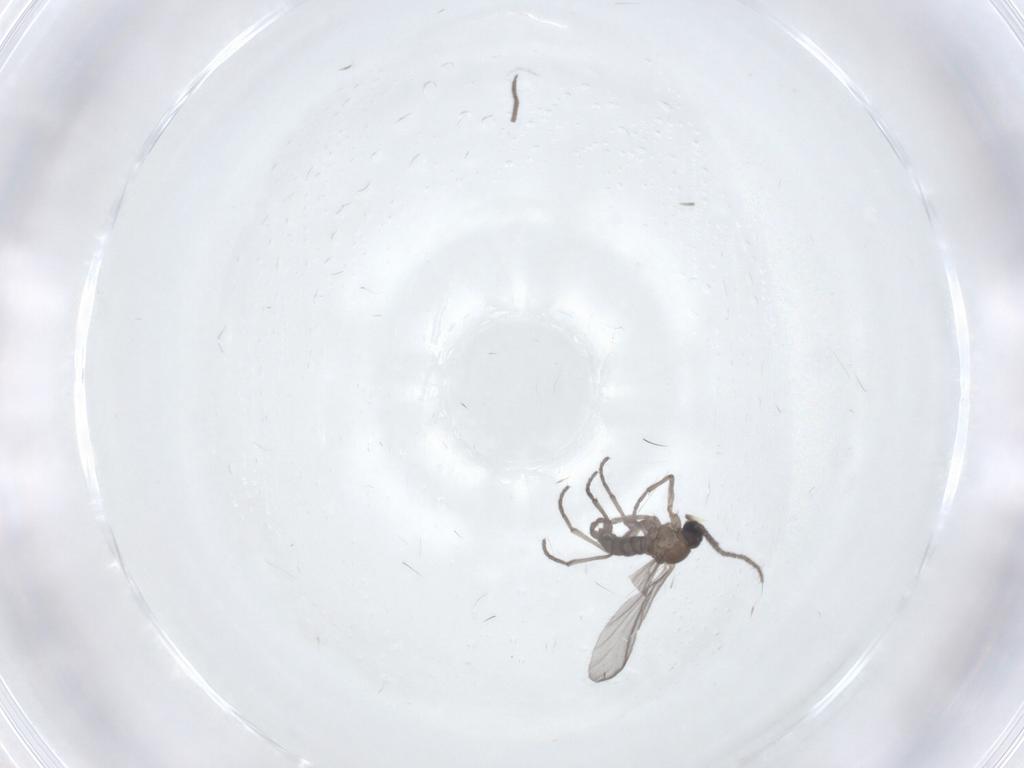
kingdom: Animalia
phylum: Arthropoda
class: Insecta
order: Diptera
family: Sciaridae
